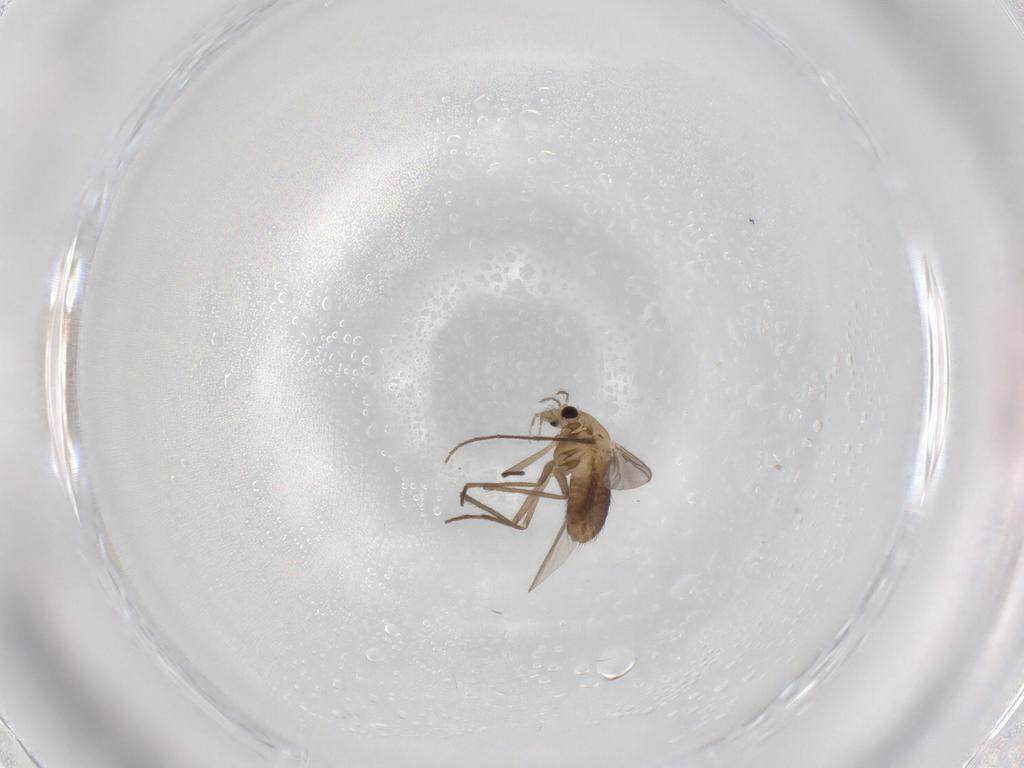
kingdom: Animalia
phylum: Arthropoda
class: Insecta
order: Diptera
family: Chironomidae
